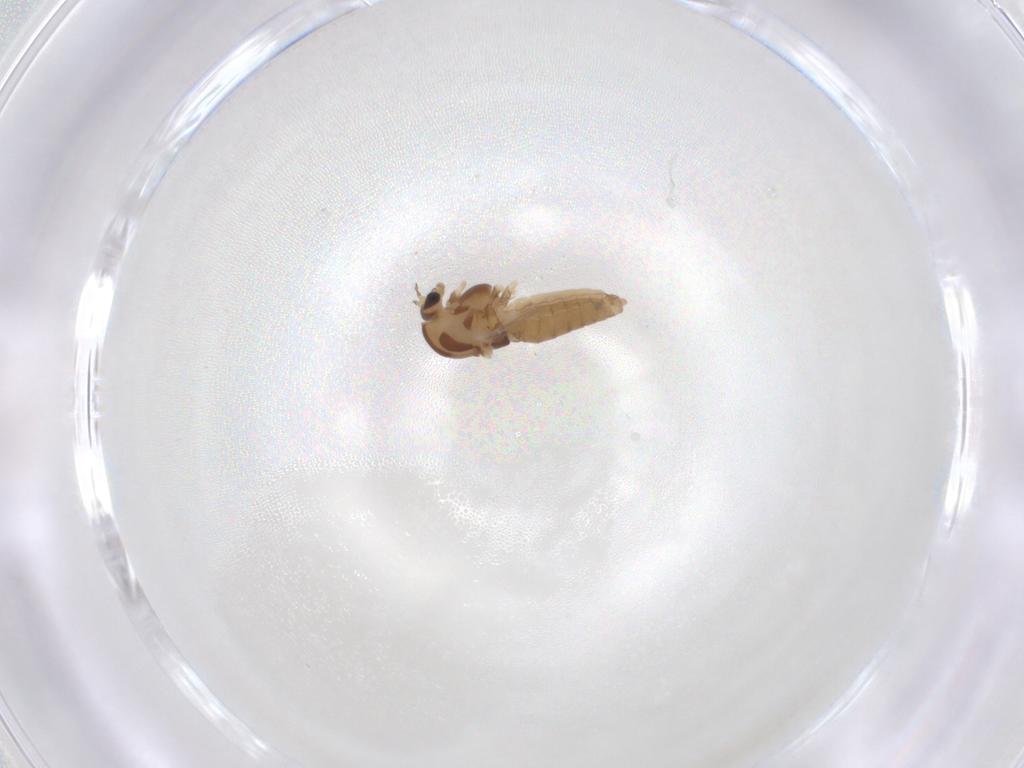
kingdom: Animalia
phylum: Arthropoda
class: Insecta
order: Diptera
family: Chironomidae
